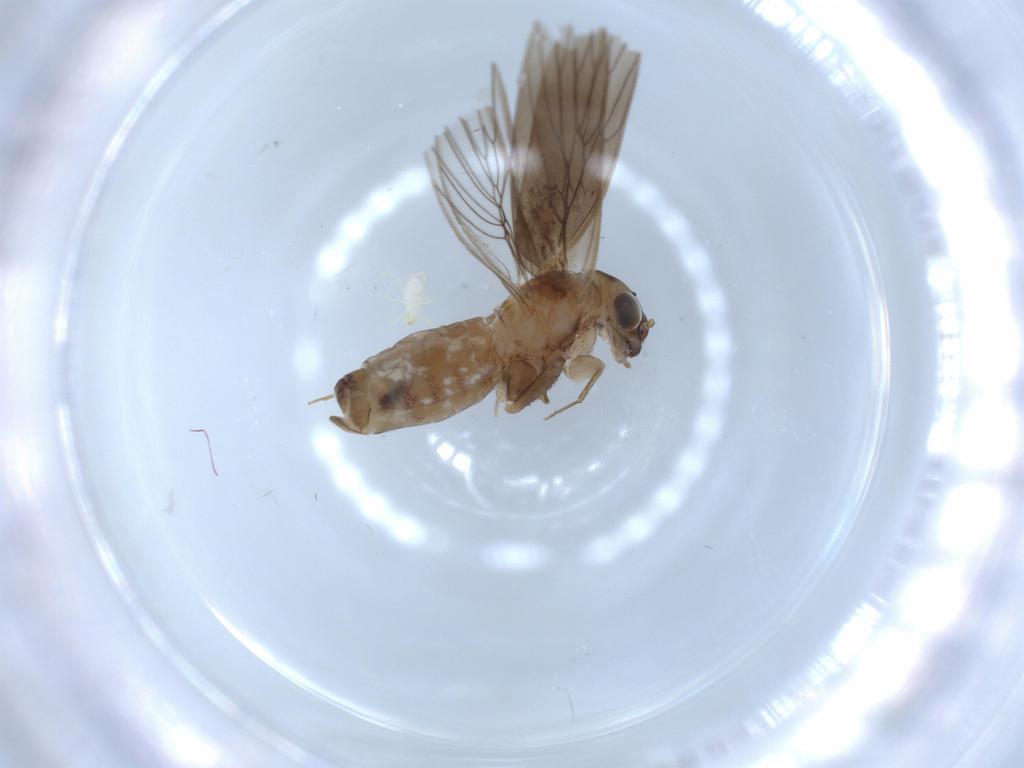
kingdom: Animalia
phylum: Arthropoda
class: Insecta
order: Psocodea
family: Lepidopsocidae
